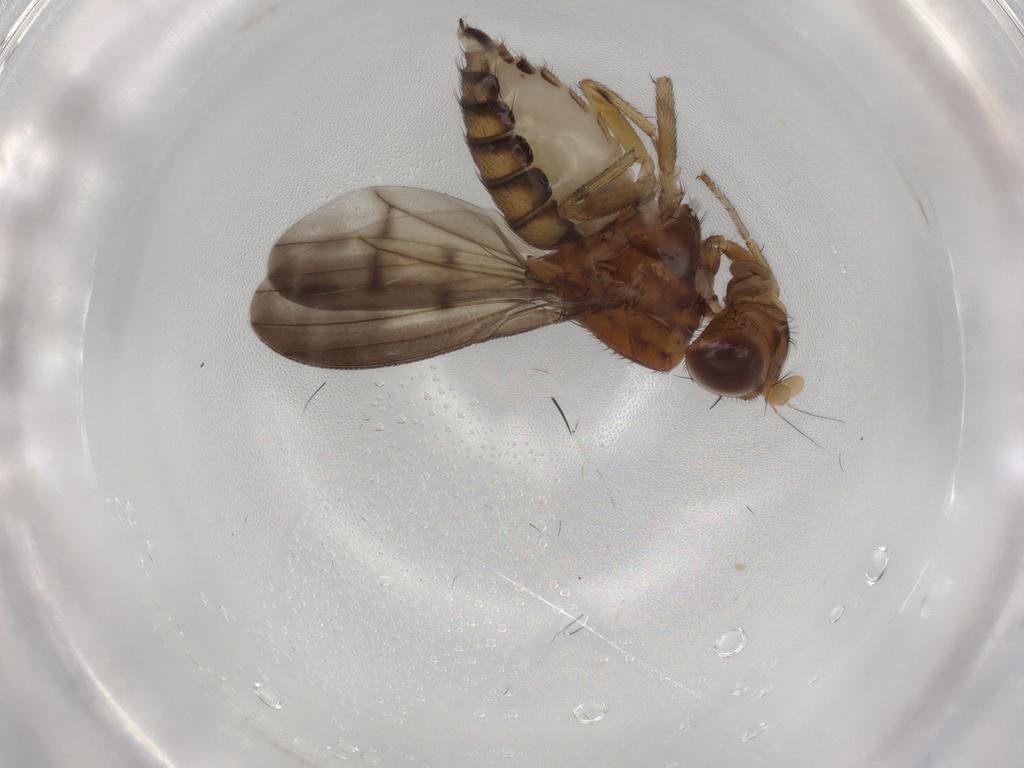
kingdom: Animalia
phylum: Arthropoda
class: Insecta
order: Diptera
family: Lauxaniidae
